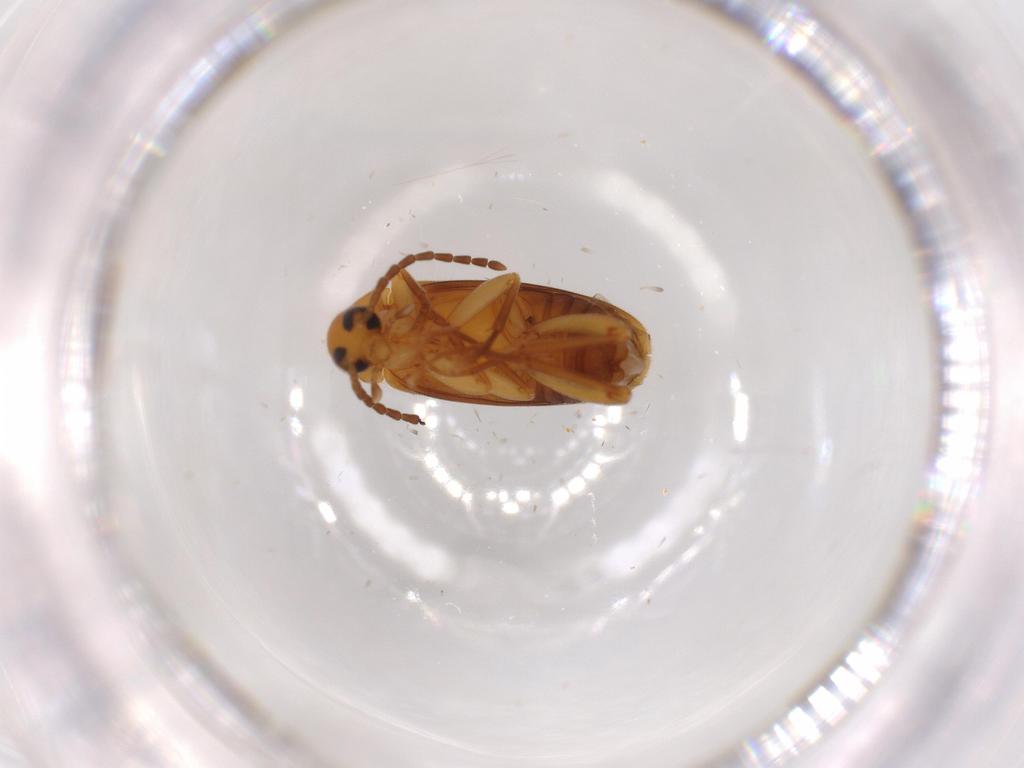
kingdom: Animalia
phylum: Arthropoda
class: Insecta
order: Coleoptera
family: Scraptiidae
